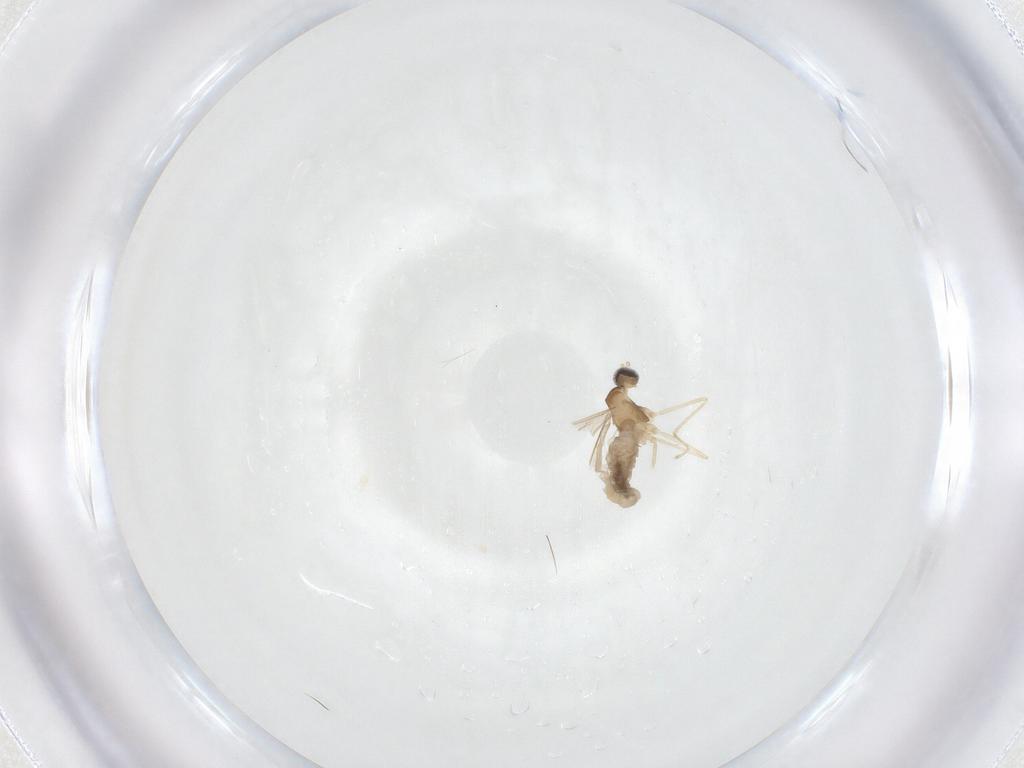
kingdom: Animalia
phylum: Arthropoda
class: Insecta
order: Diptera
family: Cecidomyiidae
